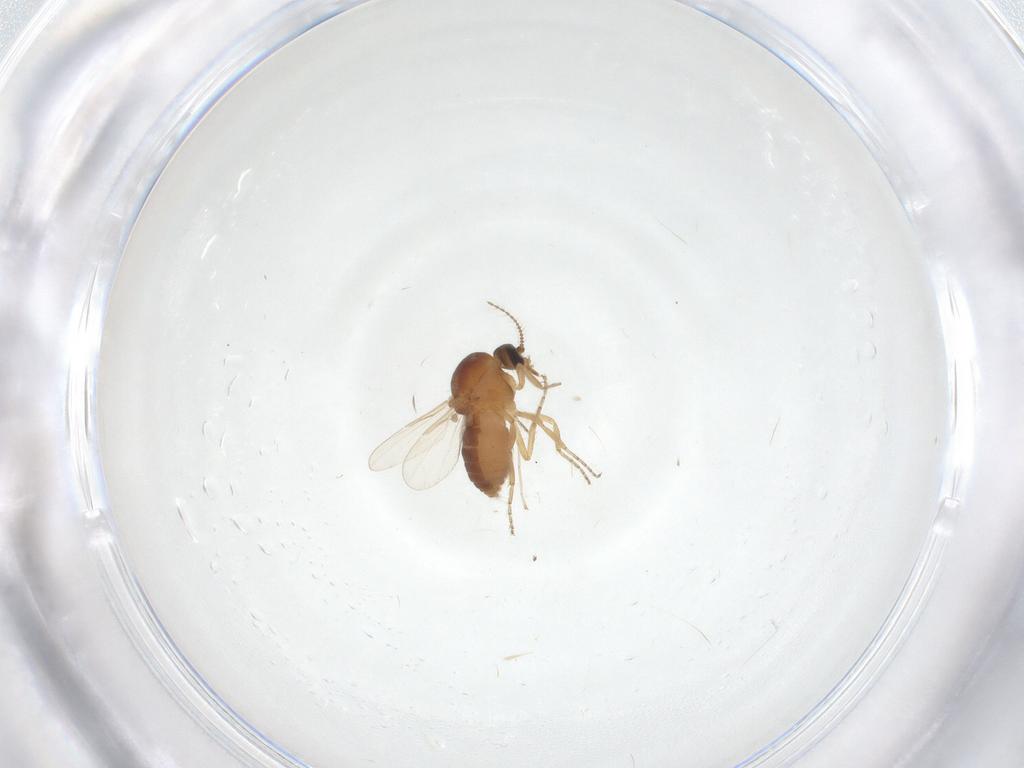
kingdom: Animalia
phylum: Arthropoda
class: Insecta
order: Diptera
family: Ceratopogonidae
